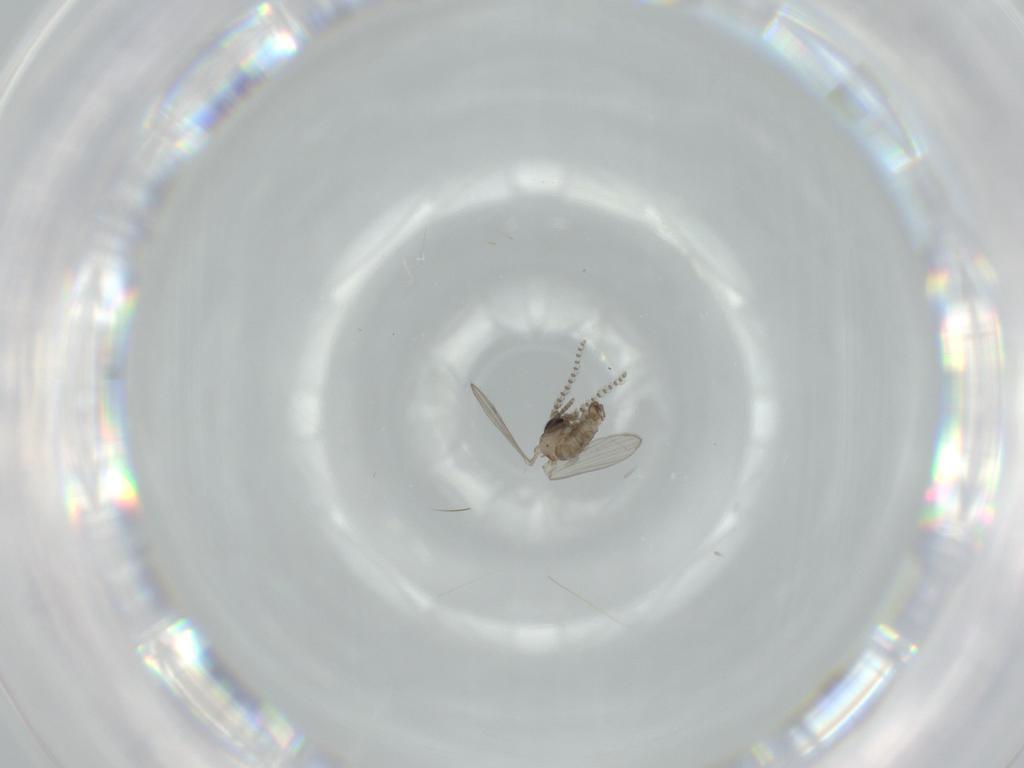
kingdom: Animalia
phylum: Arthropoda
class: Insecta
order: Diptera
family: Psychodidae
